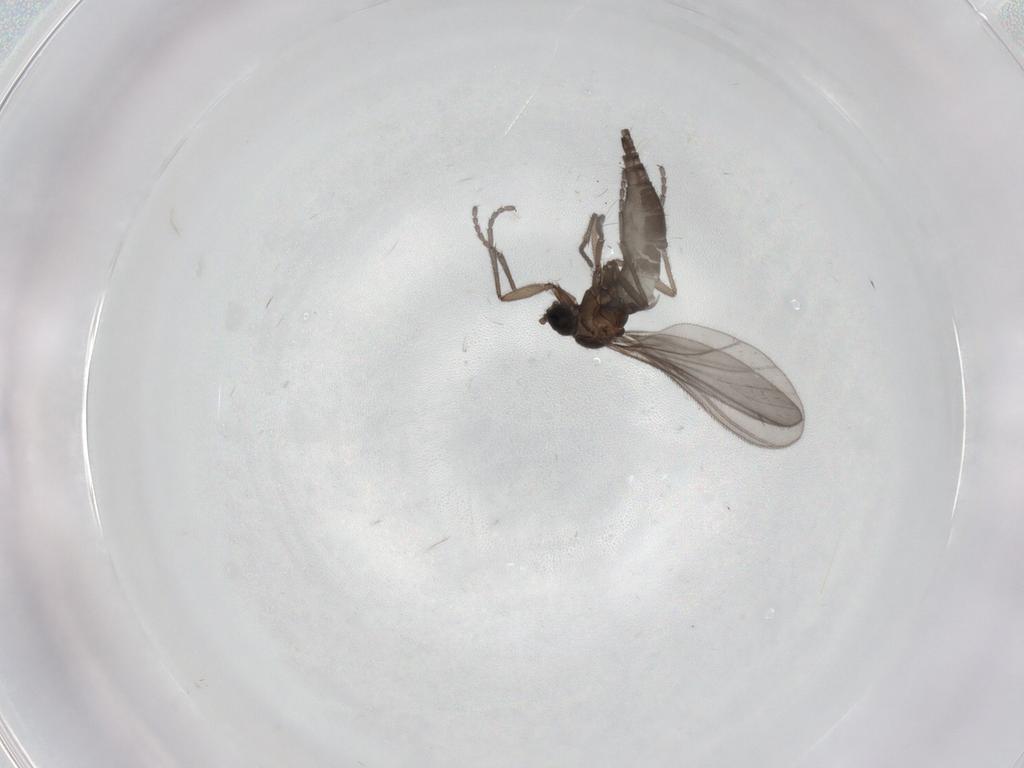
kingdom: Animalia
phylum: Arthropoda
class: Insecta
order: Diptera
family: Sciaridae
